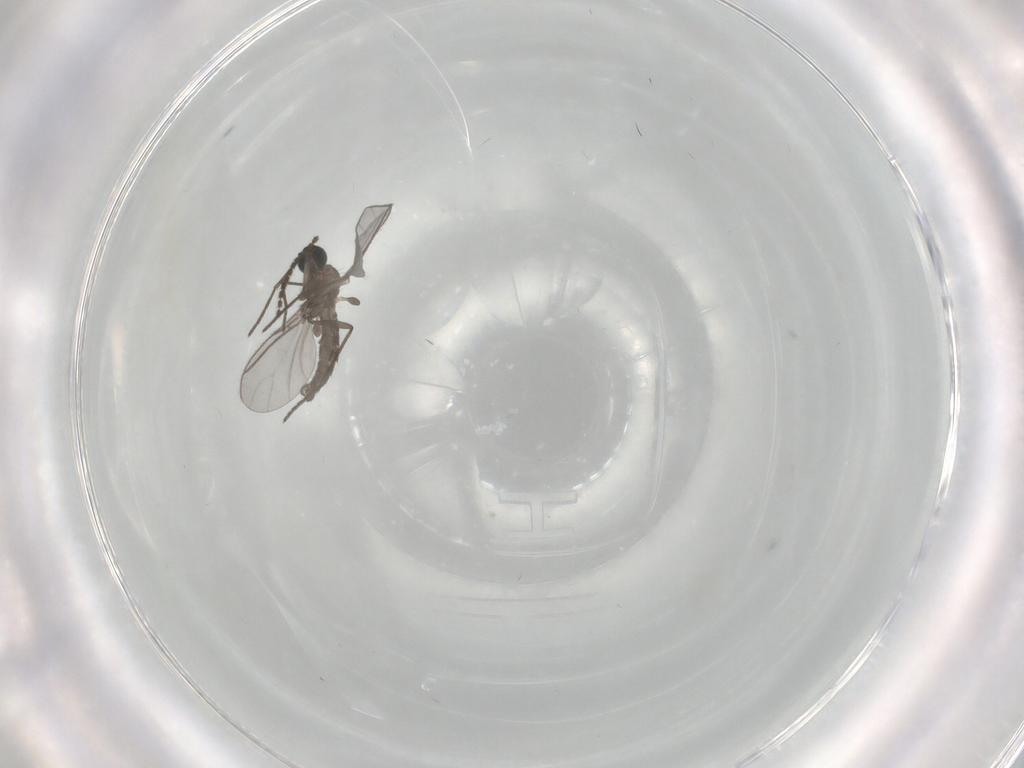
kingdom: Animalia
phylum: Arthropoda
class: Insecta
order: Diptera
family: Sciaridae
